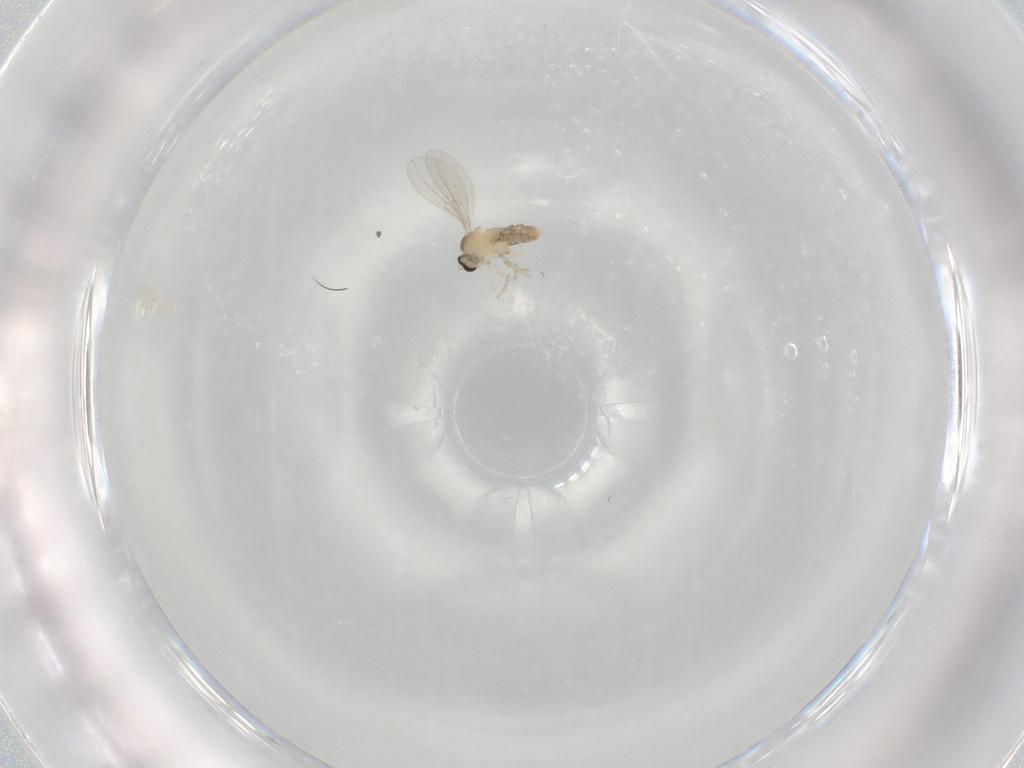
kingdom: Animalia
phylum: Arthropoda
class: Insecta
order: Diptera
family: Cecidomyiidae
